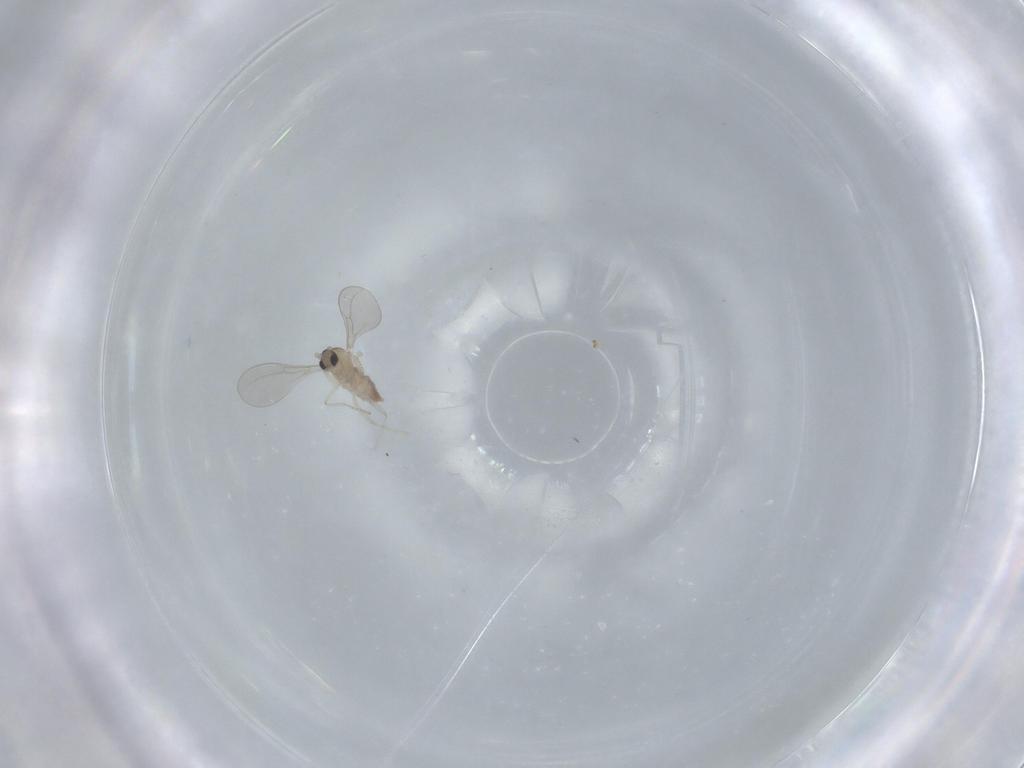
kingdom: Animalia
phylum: Arthropoda
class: Insecta
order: Diptera
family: Cecidomyiidae
